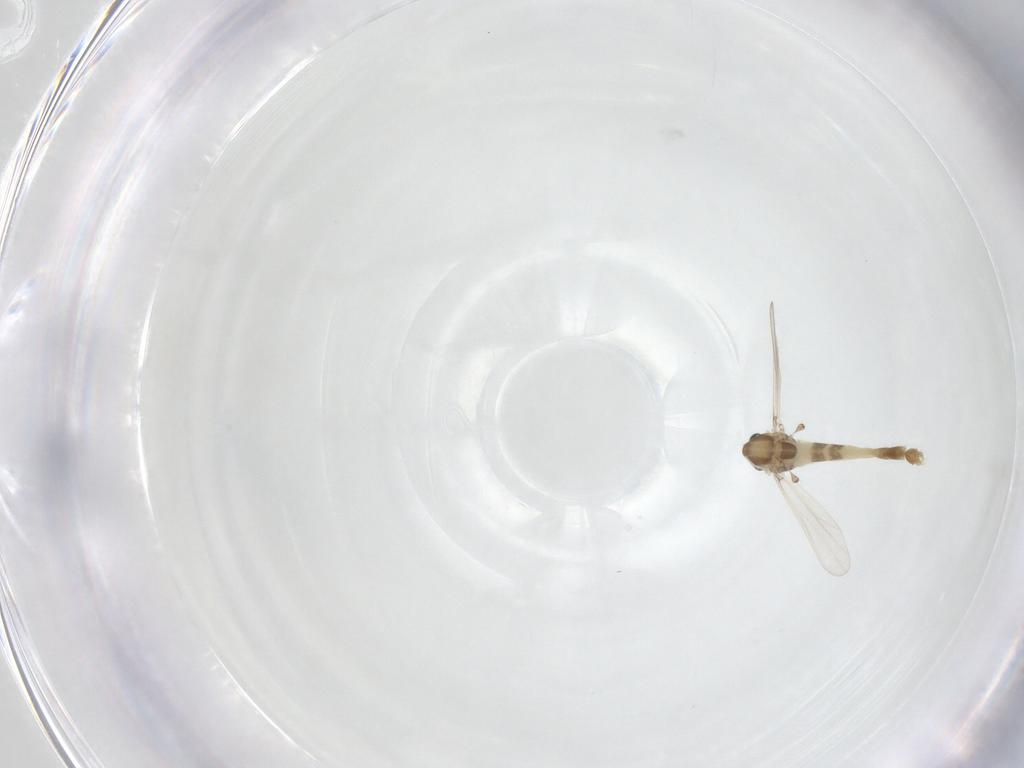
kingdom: Animalia
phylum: Arthropoda
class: Insecta
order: Diptera
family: Chironomidae
